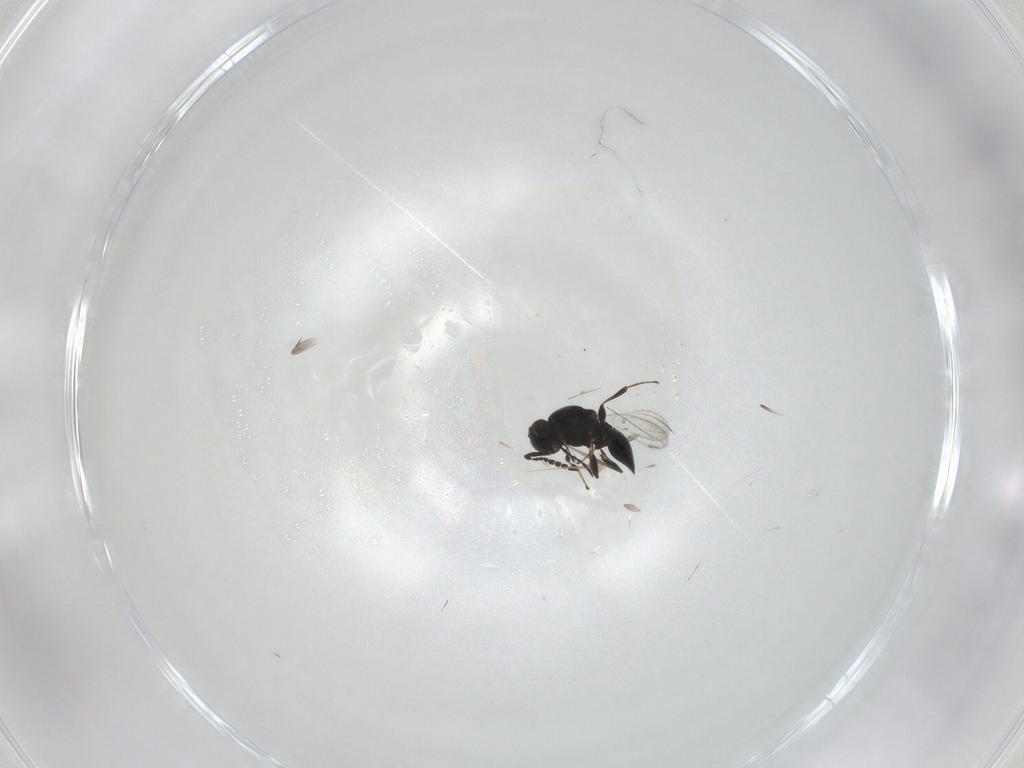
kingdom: Animalia
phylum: Arthropoda
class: Insecta
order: Hymenoptera
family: Platygastridae
